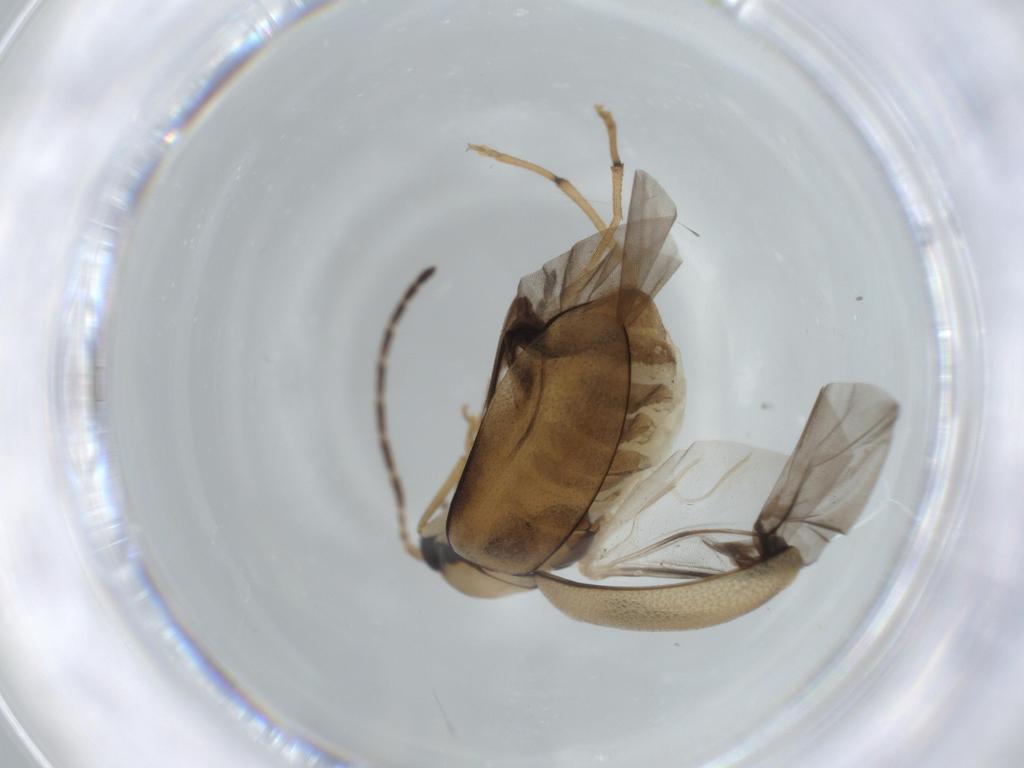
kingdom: Animalia
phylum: Arthropoda
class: Insecta
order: Coleoptera
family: Chrysomelidae
